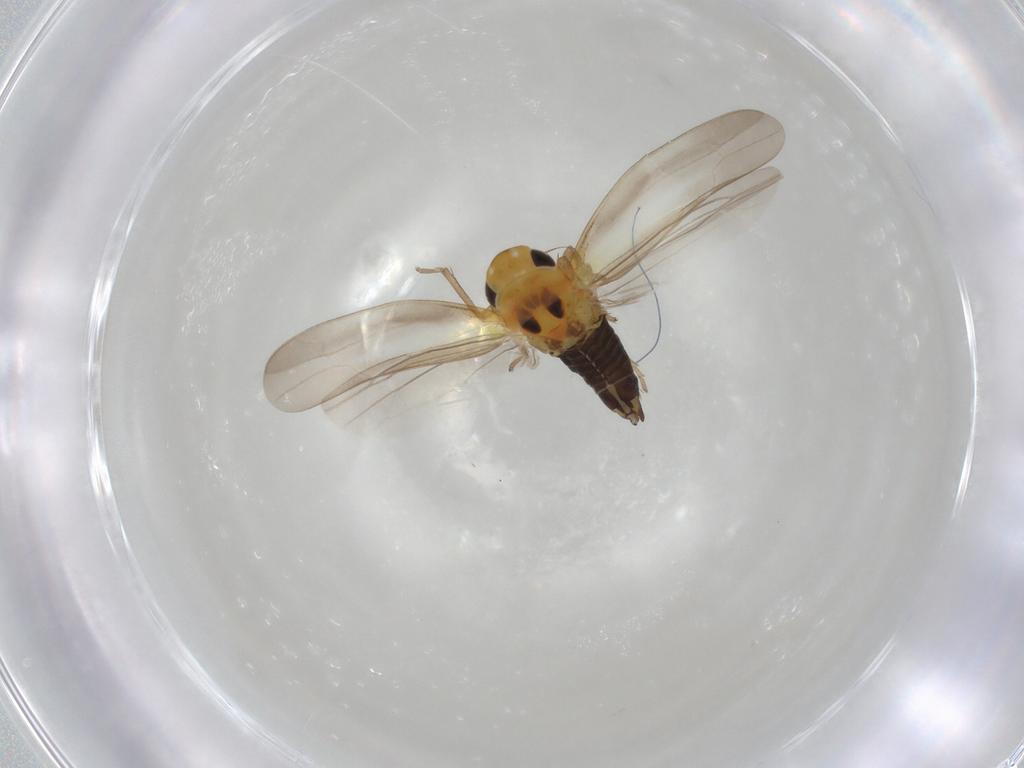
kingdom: Animalia
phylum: Arthropoda
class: Insecta
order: Hemiptera
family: Cicadellidae
